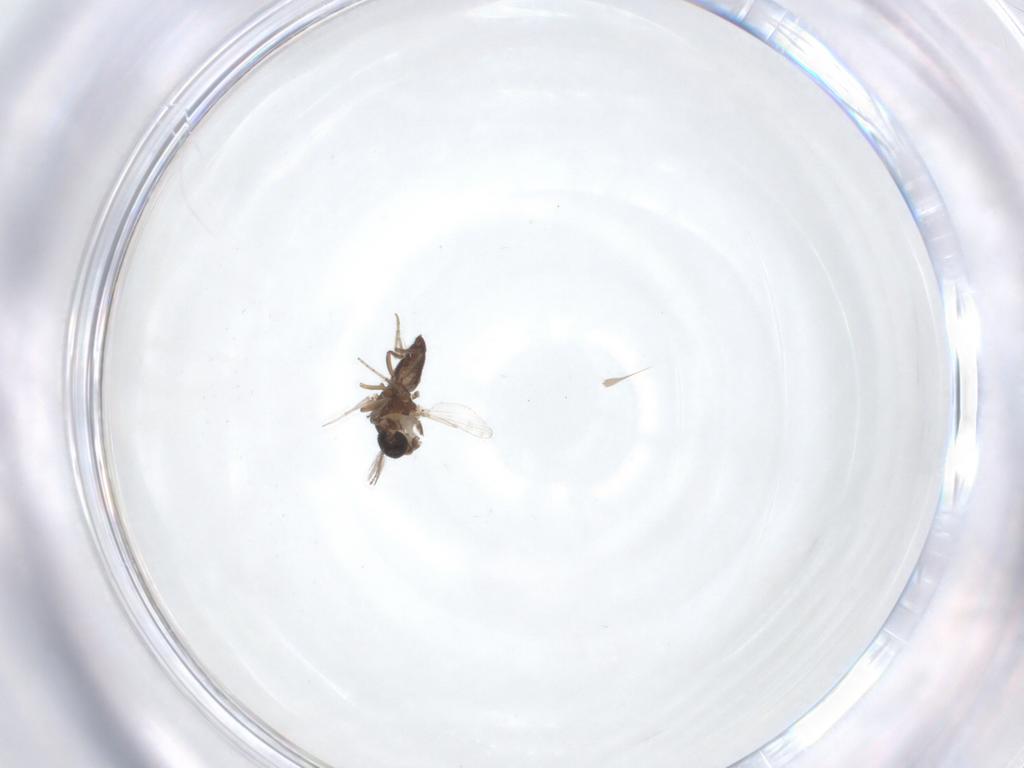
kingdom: Animalia
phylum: Arthropoda
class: Insecta
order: Diptera
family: Ceratopogonidae
